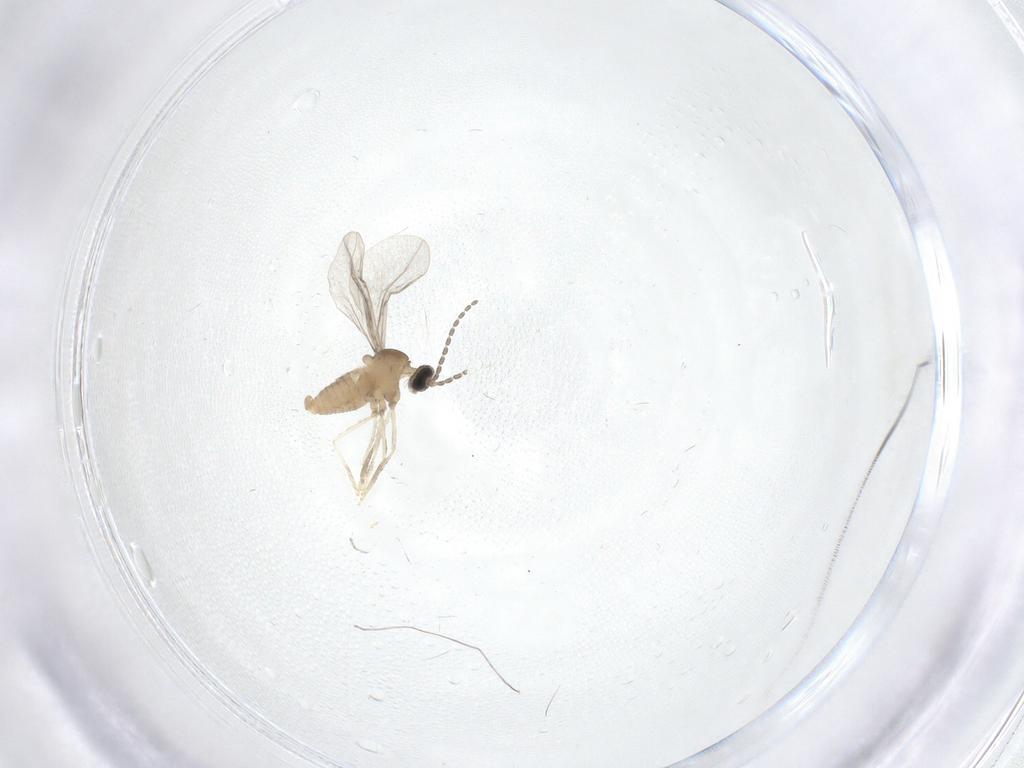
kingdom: Animalia
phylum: Arthropoda
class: Insecta
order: Diptera
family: Cecidomyiidae
